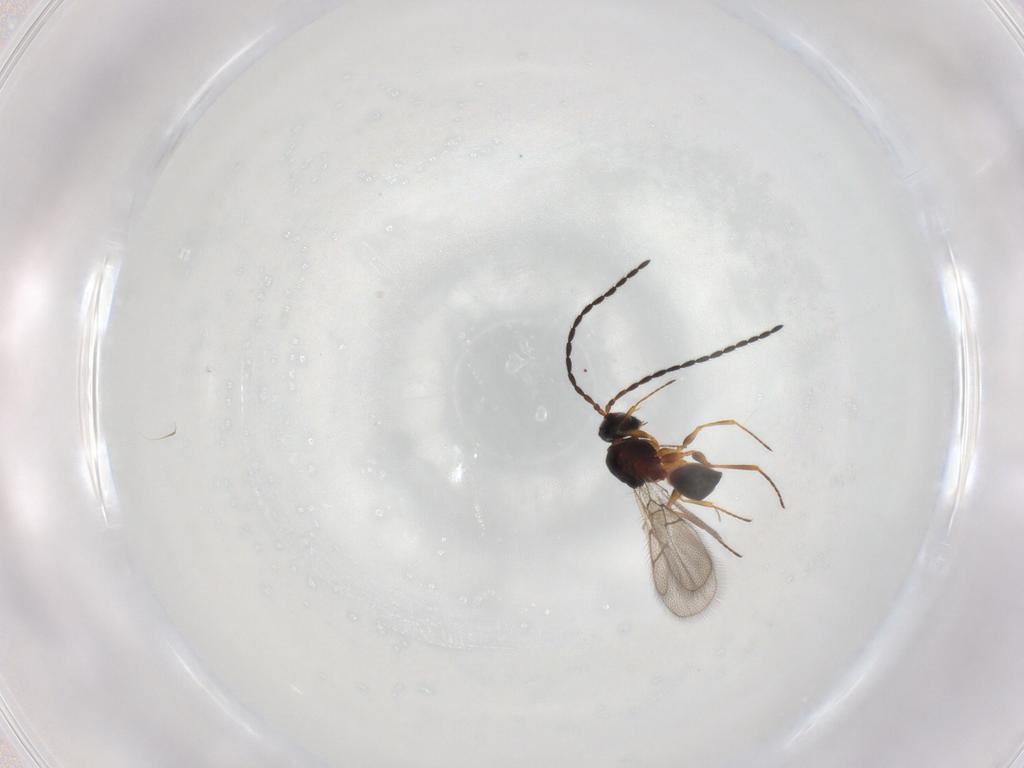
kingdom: Animalia
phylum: Arthropoda
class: Insecta
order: Hymenoptera
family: Figitidae
